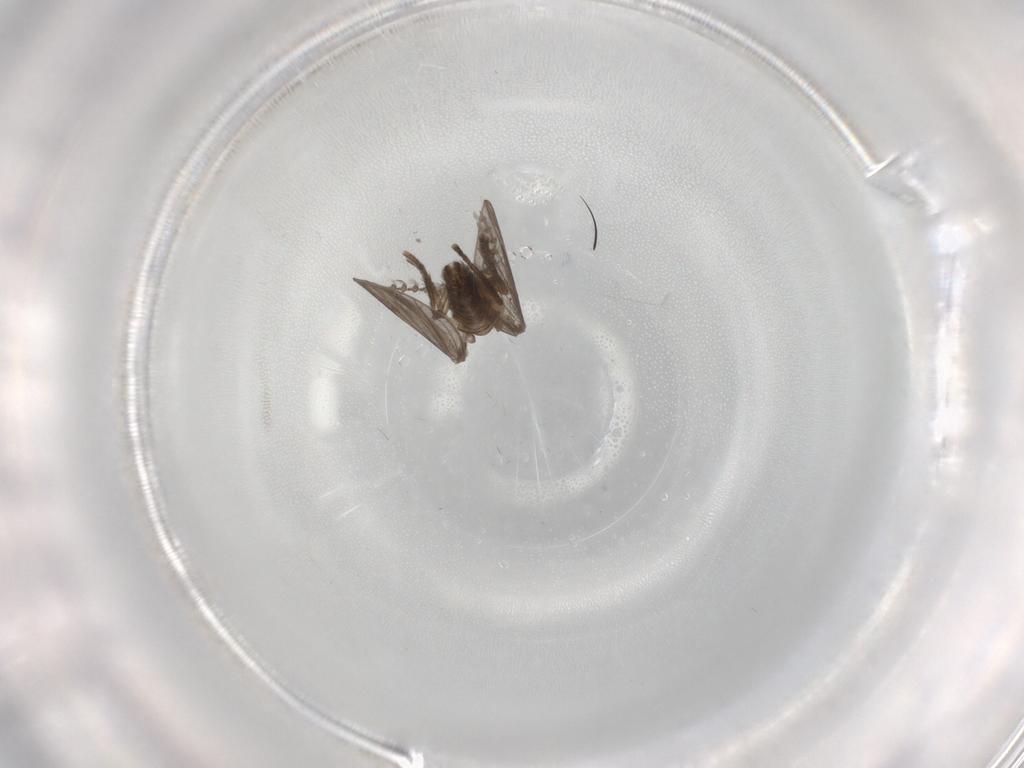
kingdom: Animalia
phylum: Arthropoda
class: Insecta
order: Diptera
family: Psychodidae
